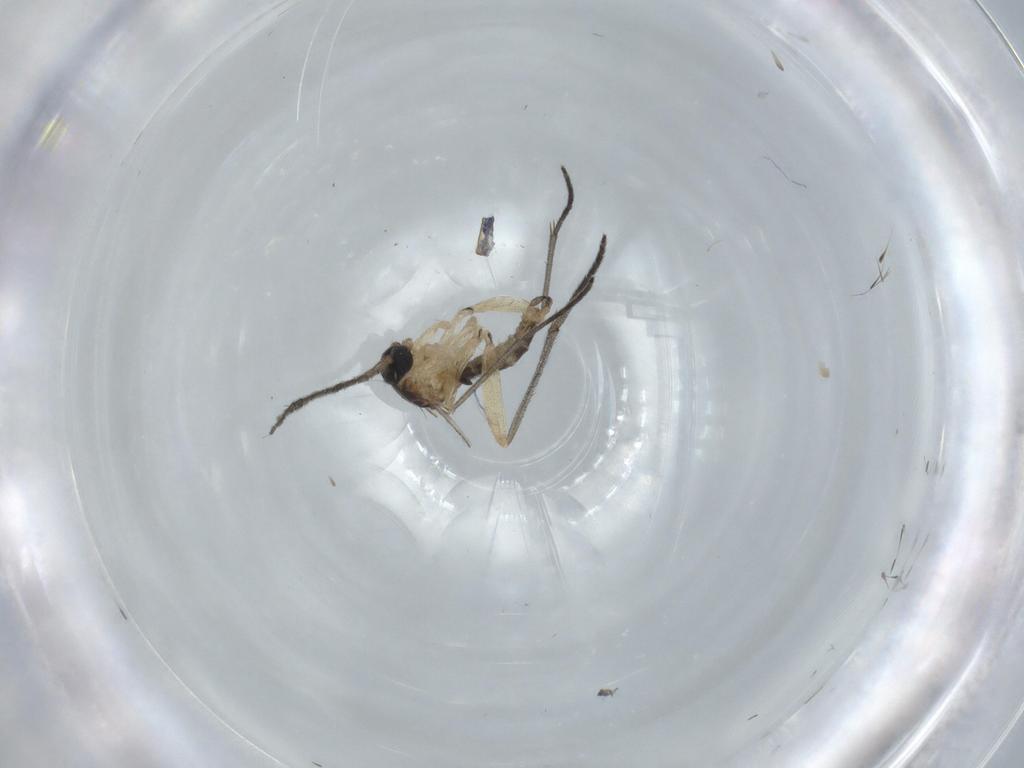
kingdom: Animalia
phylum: Arthropoda
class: Insecta
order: Diptera
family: Sciaridae
